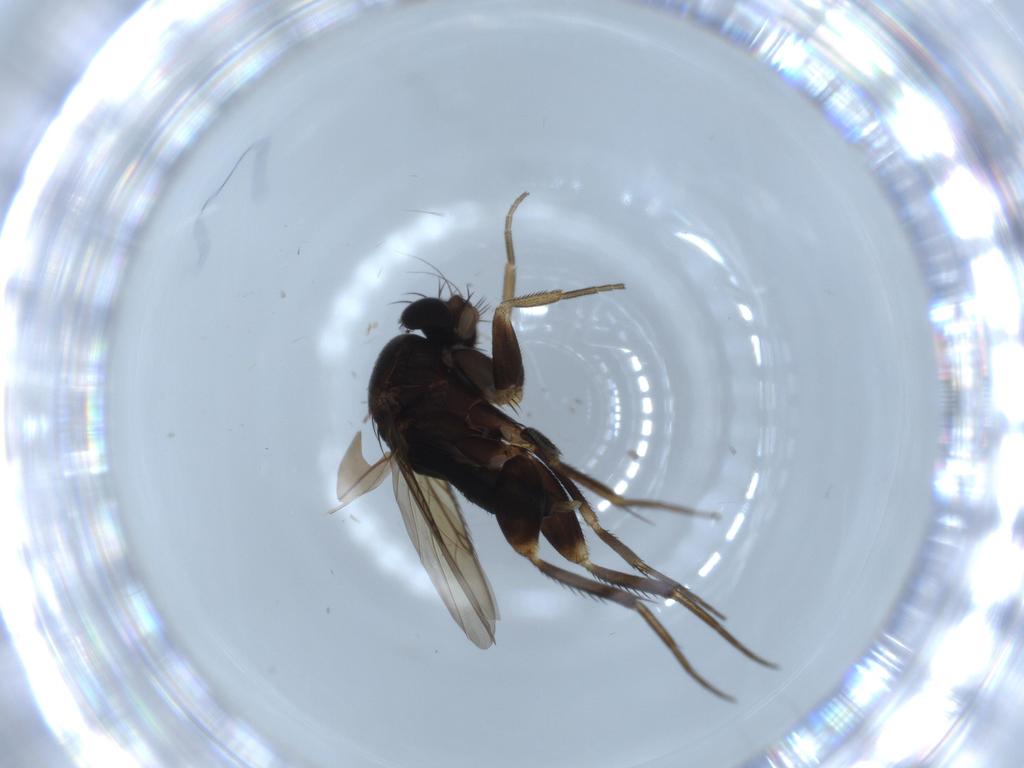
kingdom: Animalia
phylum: Arthropoda
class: Insecta
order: Diptera
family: Phoridae
